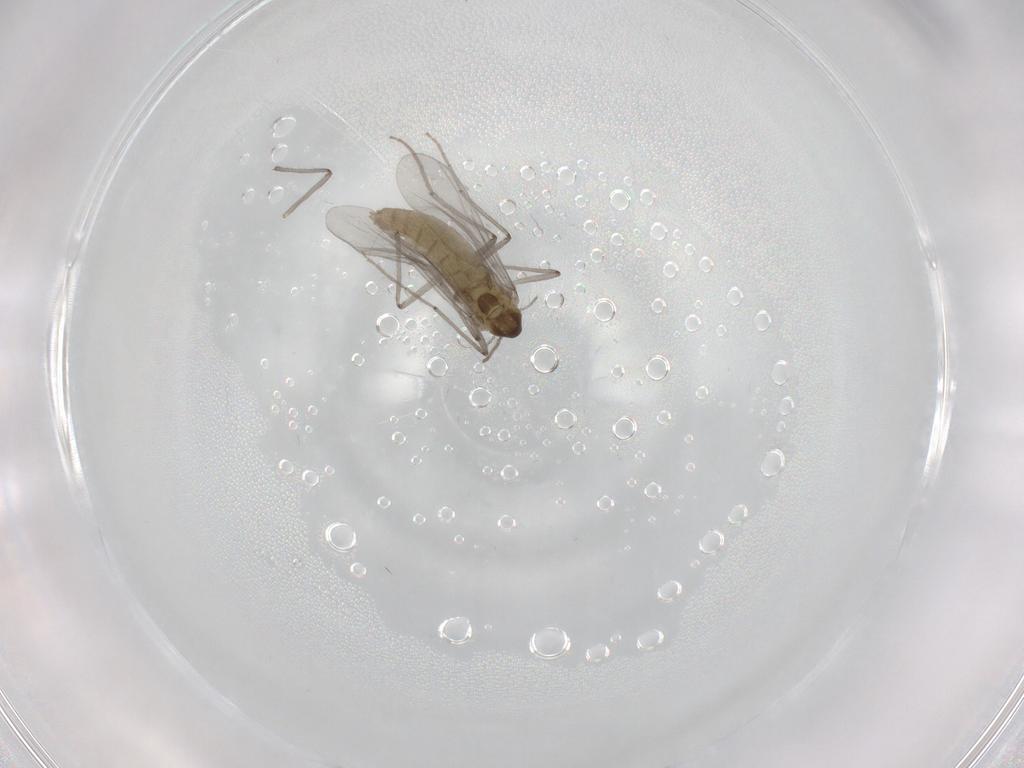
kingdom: Animalia
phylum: Arthropoda
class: Insecta
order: Diptera
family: Chironomidae
